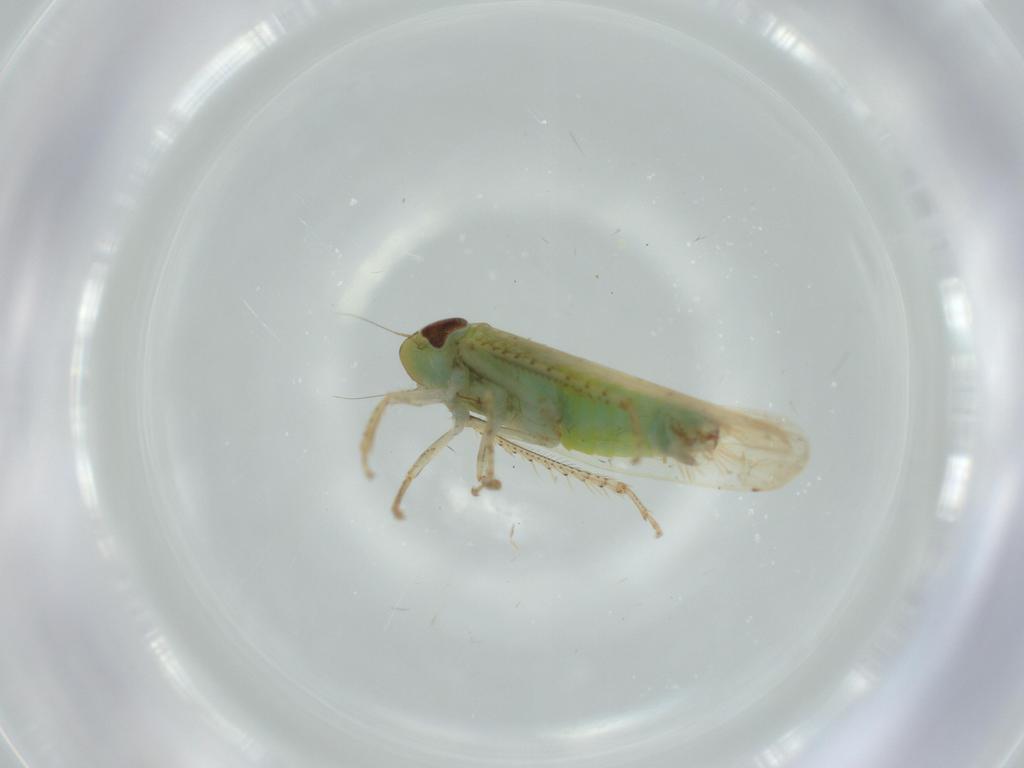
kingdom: Animalia
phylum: Arthropoda
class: Insecta
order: Hemiptera
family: Cicadellidae
